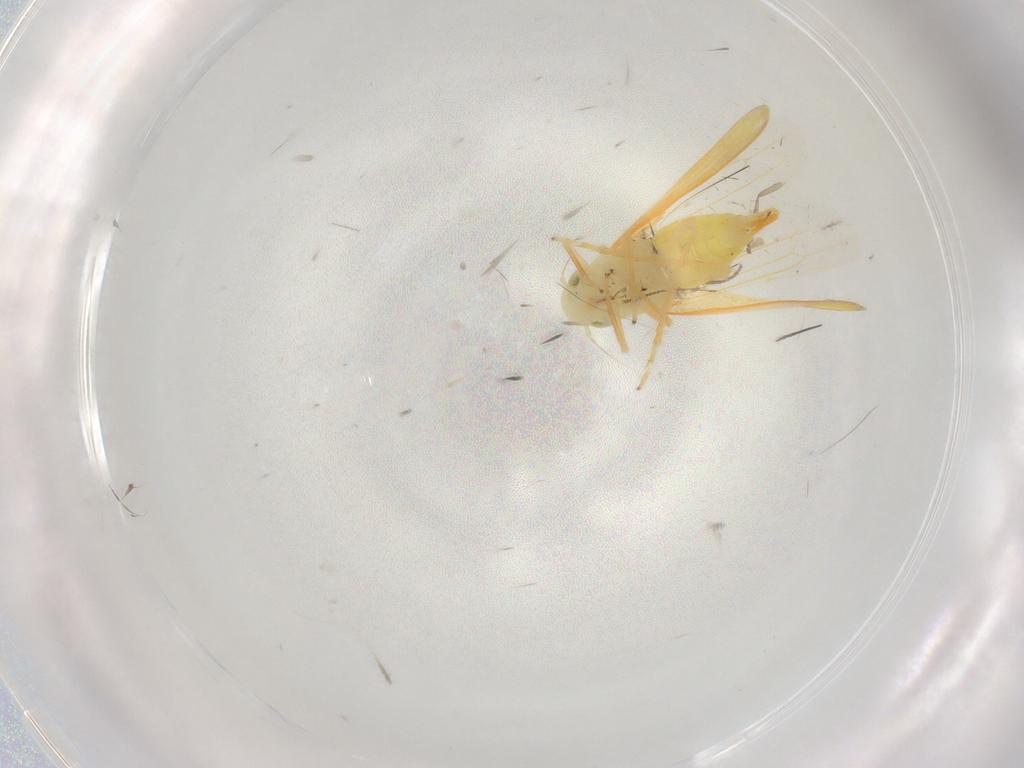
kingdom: Animalia
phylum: Arthropoda
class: Insecta
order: Hemiptera
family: Cicadellidae
